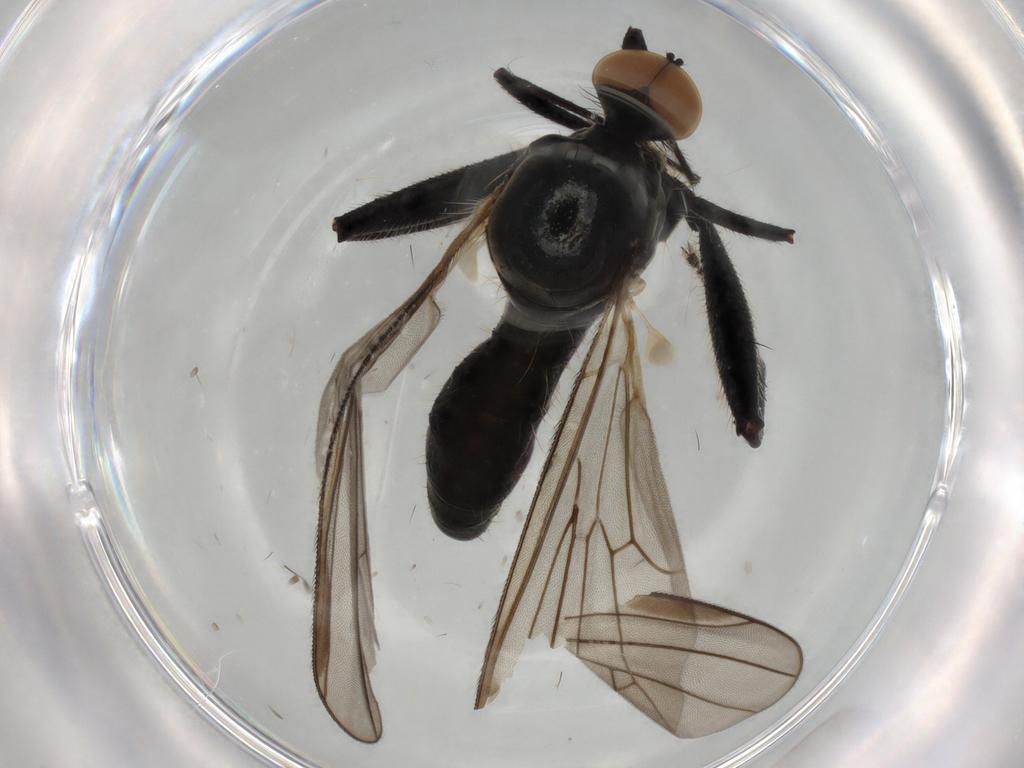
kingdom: Animalia
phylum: Arthropoda
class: Insecta
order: Diptera
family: Hybotidae
